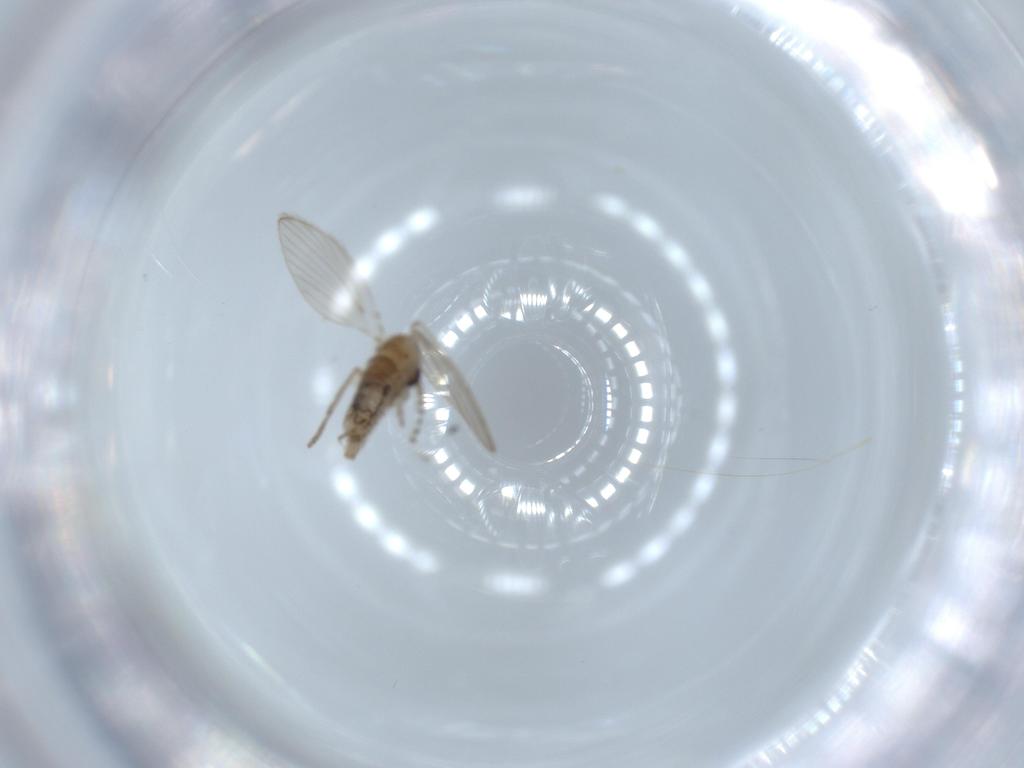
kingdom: Animalia
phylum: Arthropoda
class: Insecta
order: Diptera
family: Psychodidae
